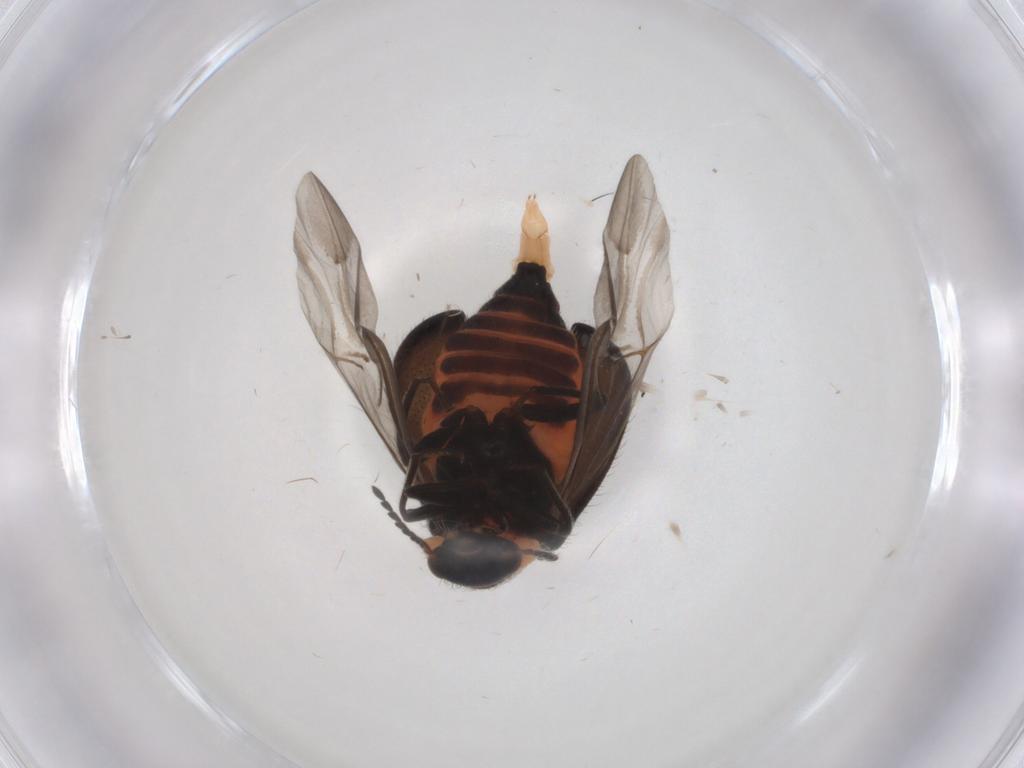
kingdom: Animalia
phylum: Arthropoda
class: Insecta
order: Coleoptera
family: Melyridae
